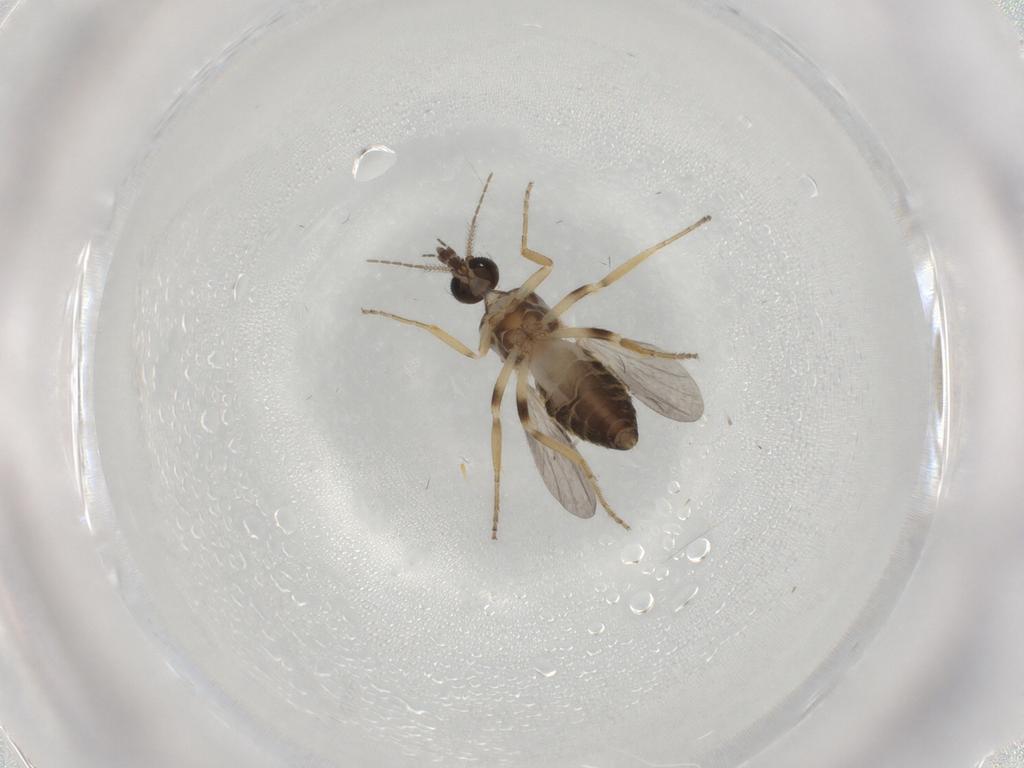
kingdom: Animalia
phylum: Arthropoda
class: Insecta
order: Diptera
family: Ceratopogonidae
